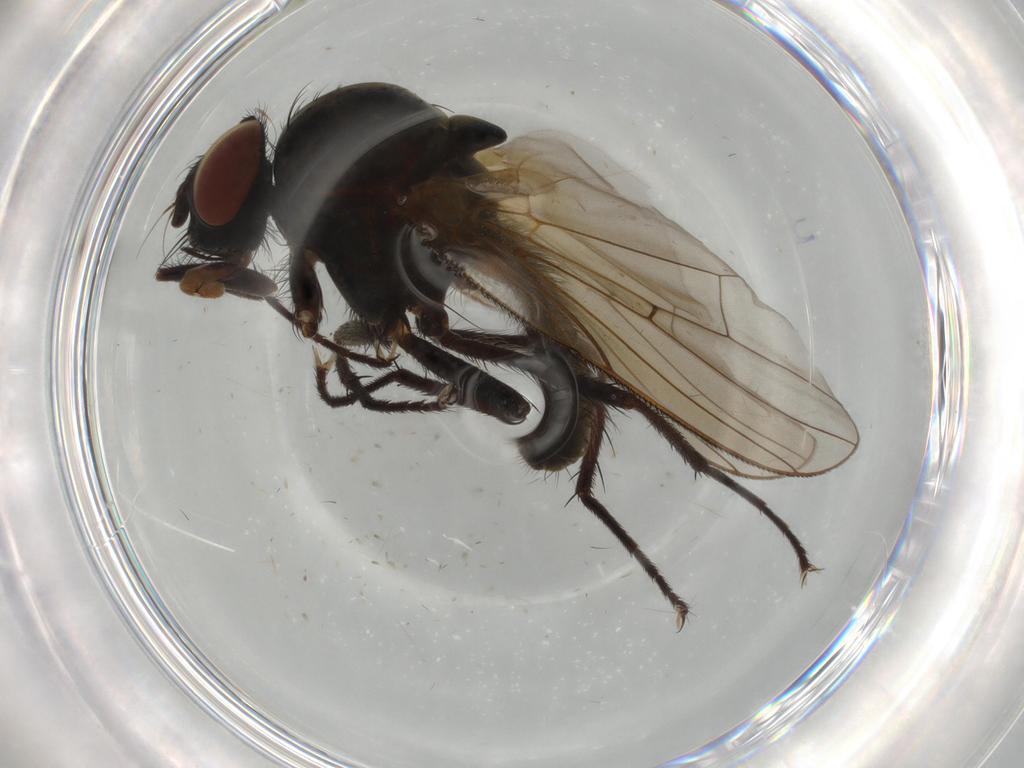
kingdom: Animalia
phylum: Arthropoda
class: Insecta
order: Diptera
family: Anthomyiidae
